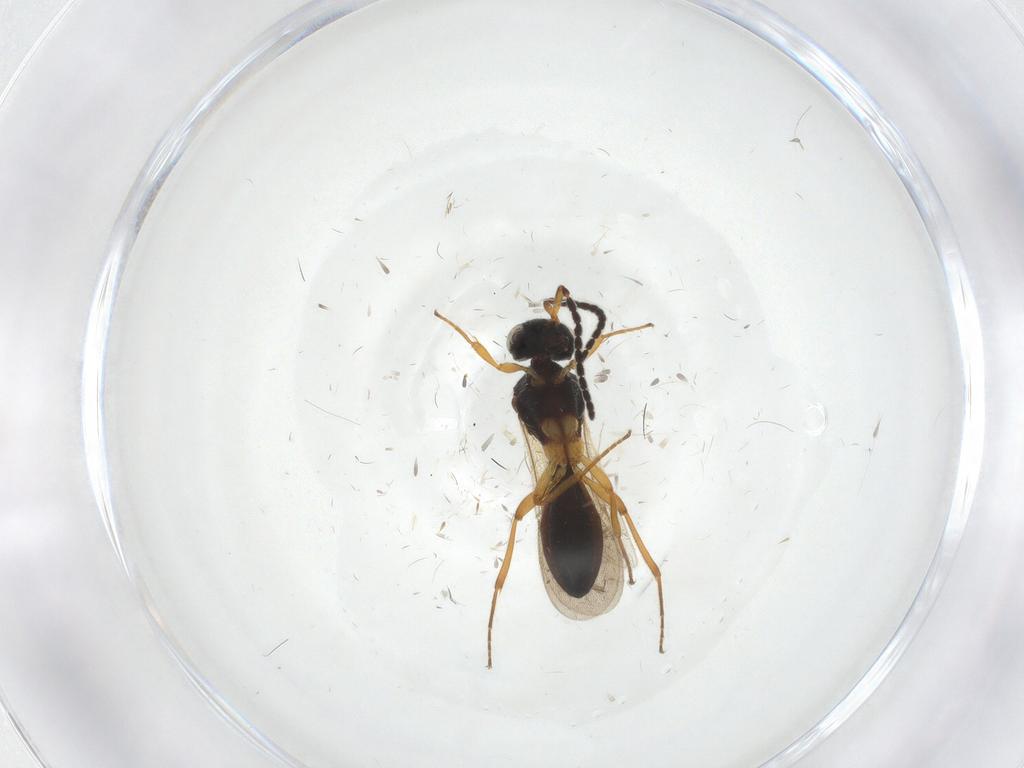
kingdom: Animalia
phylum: Arthropoda
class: Insecta
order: Hymenoptera
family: Scelionidae
